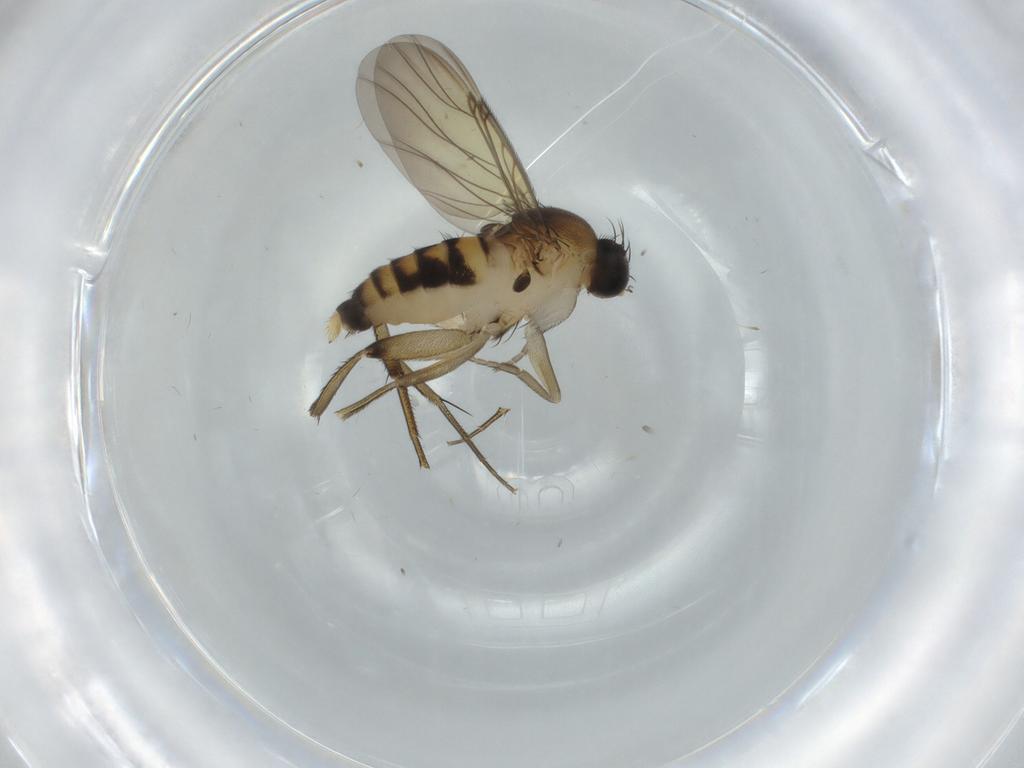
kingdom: Animalia
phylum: Arthropoda
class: Insecta
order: Diptera
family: Phoridae
